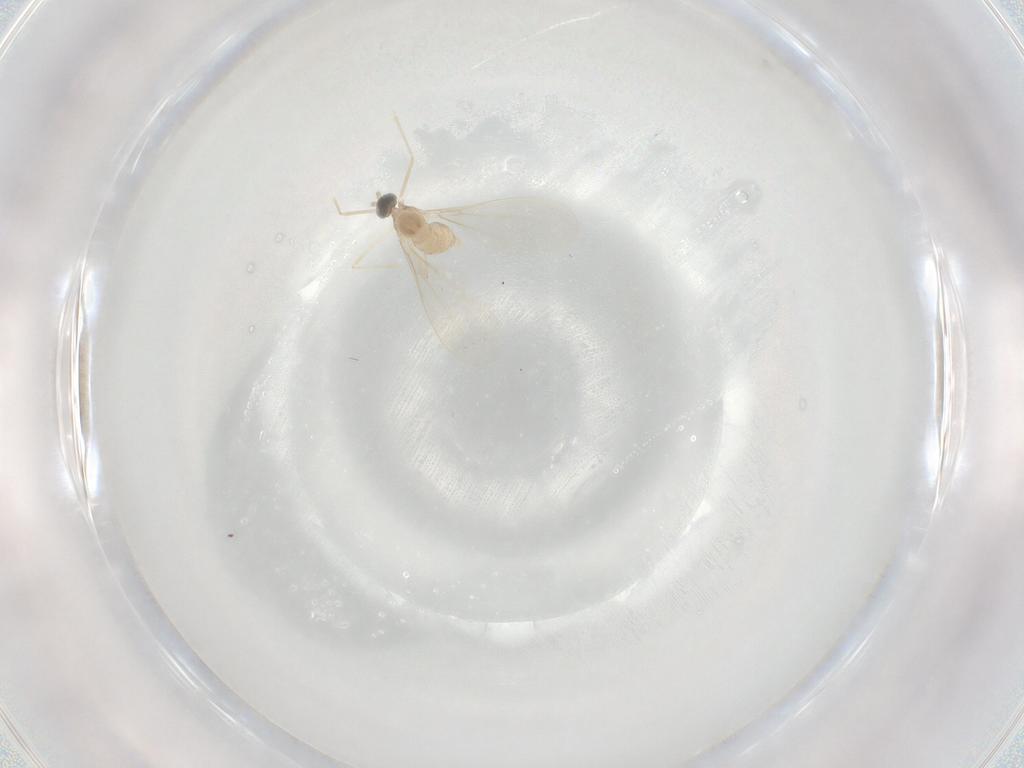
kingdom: Animalia
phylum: Arthropoda
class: Insecta
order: Diptera
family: Cecidomyiidae
